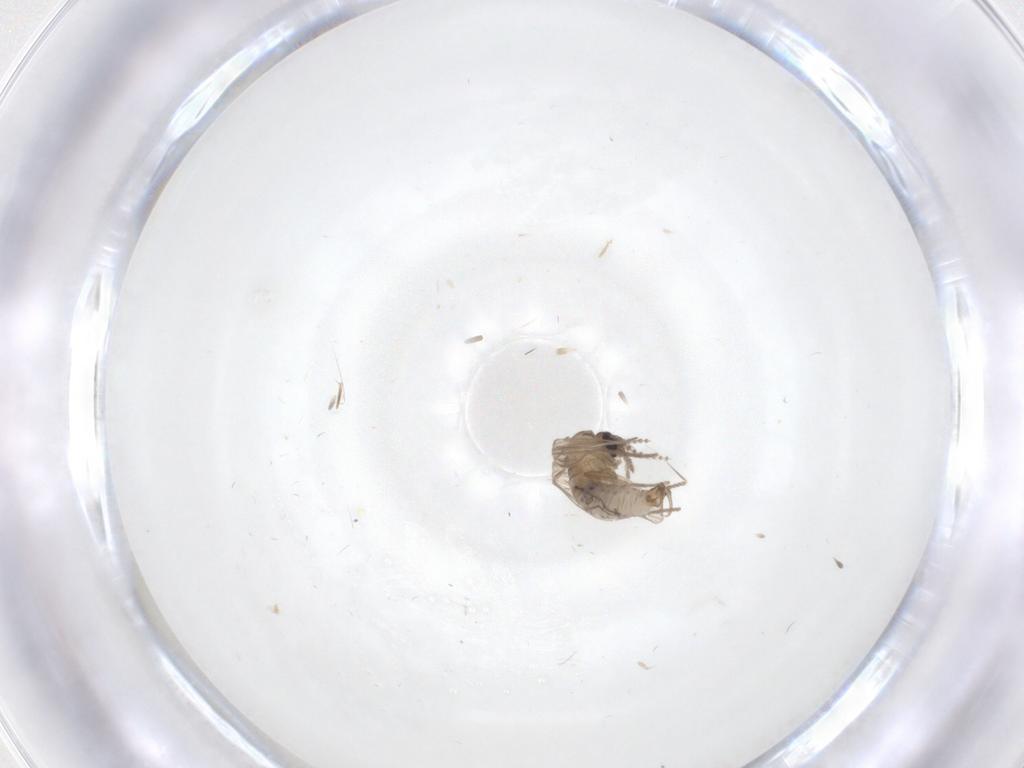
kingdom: Animalia
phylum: Arthropoda
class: Insecta
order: Diptera
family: Psychodidae
